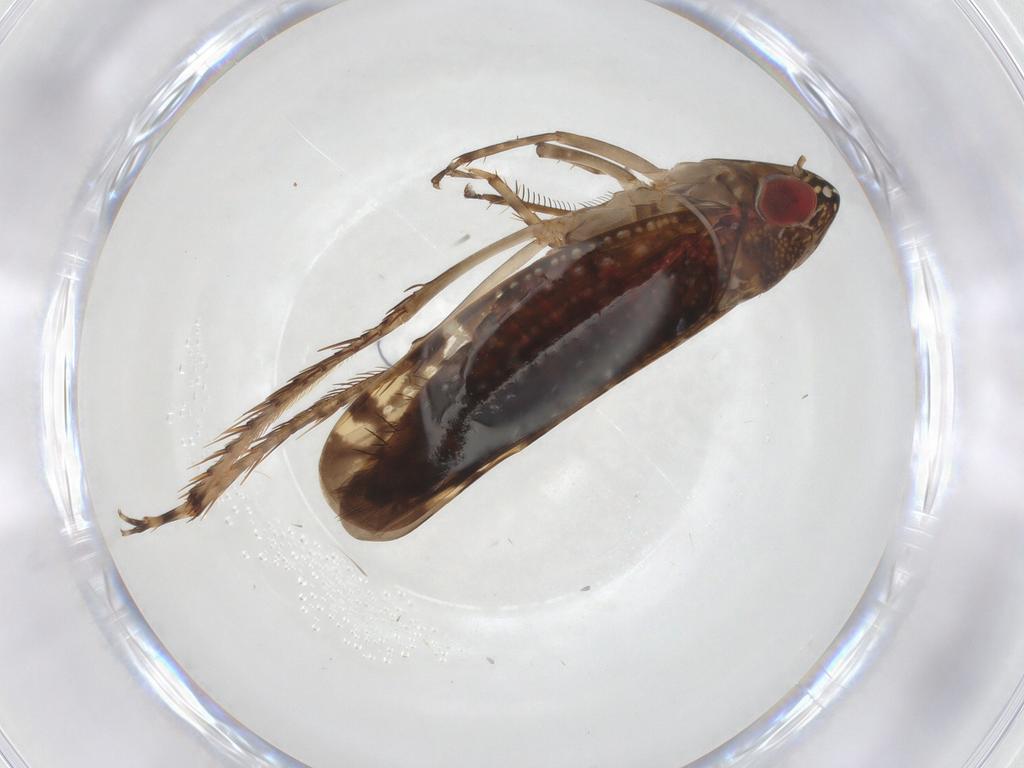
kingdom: Animalia
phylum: Arthropoda
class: Insecta
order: Hemiptera
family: Cicadellidae
